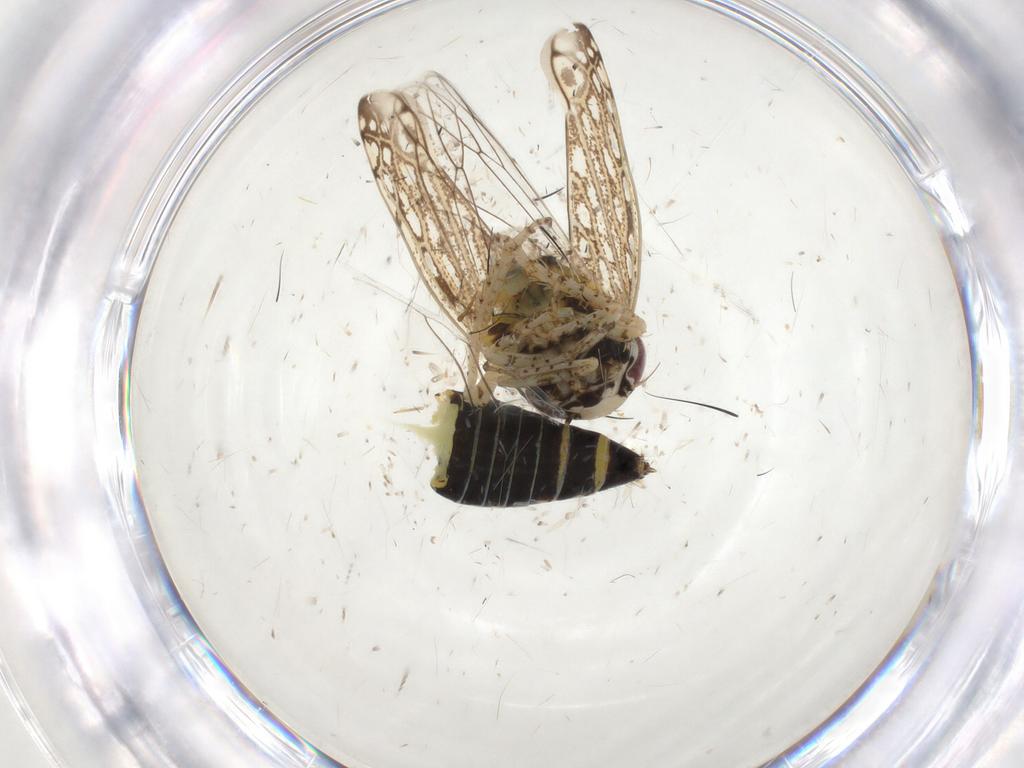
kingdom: Animalia
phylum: Arthropoda
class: Insecta
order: Hemiptera
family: Cicadellidae
